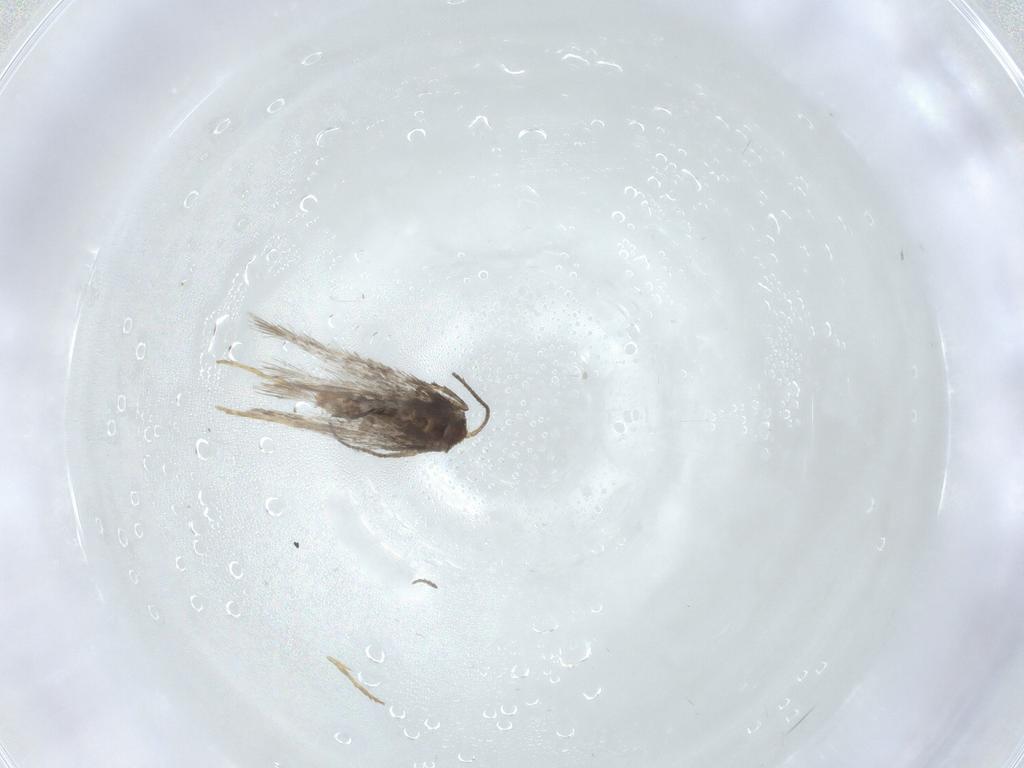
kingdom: Animalia
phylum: Arthropoda
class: Insecta
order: Lepidoptera
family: Nepticulidae
